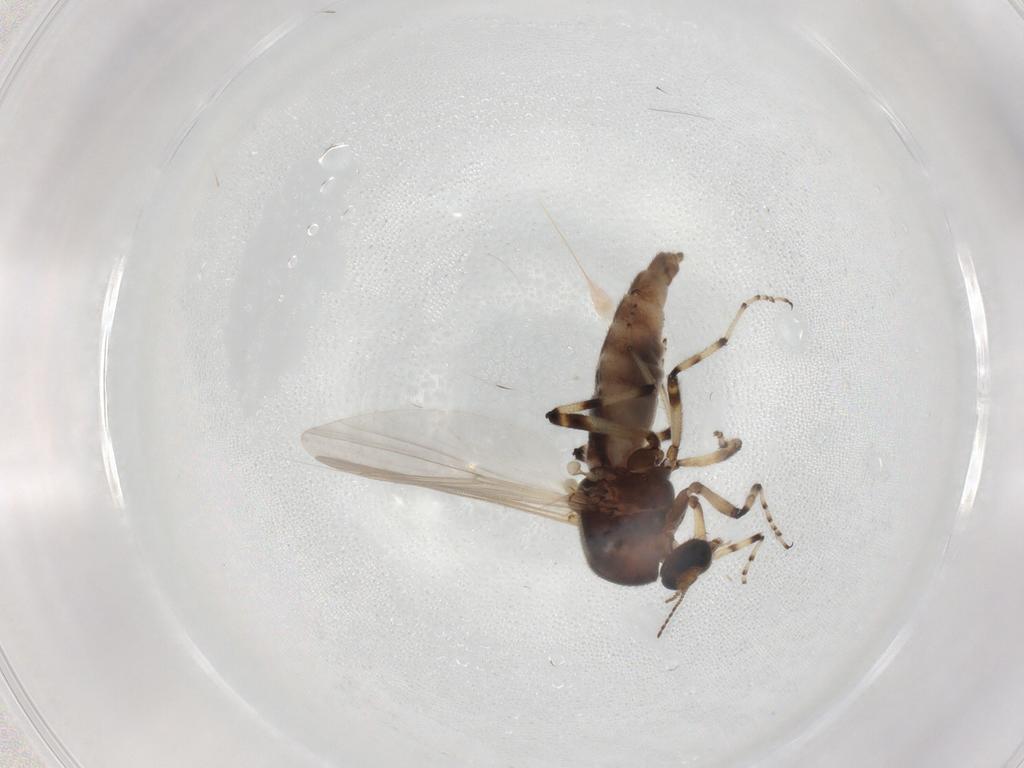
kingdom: Animalia
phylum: Arthropoda
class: Insecta
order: Diptera
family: Ceratopogonidae
